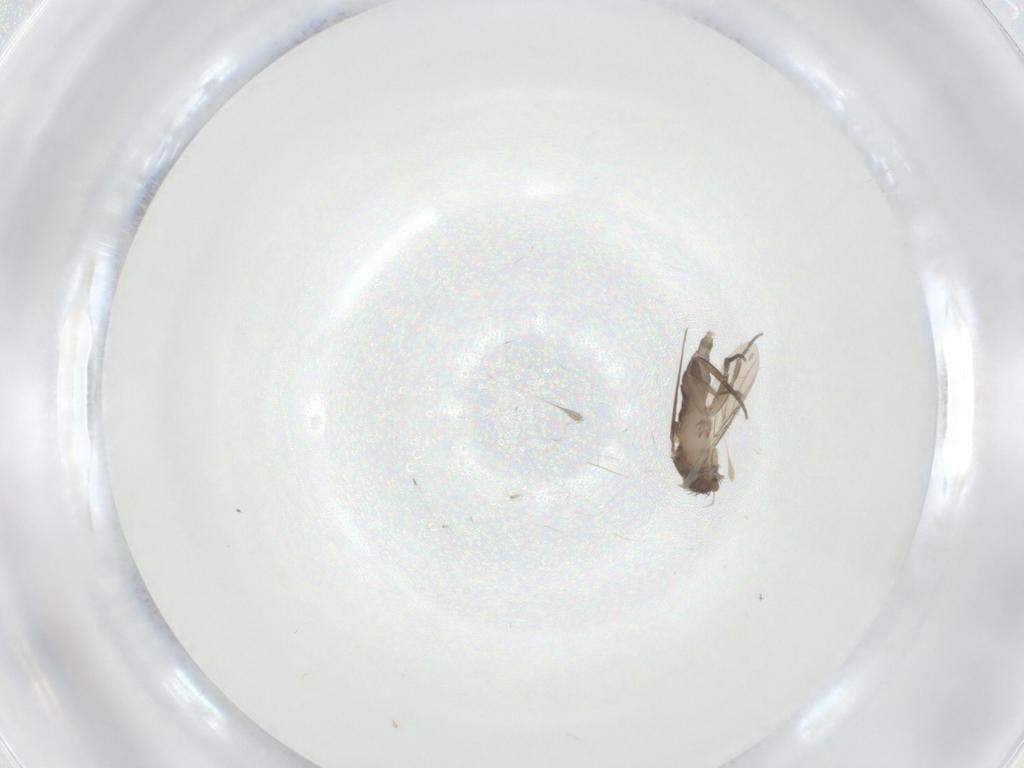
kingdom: Animalia
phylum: Arthropoda
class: Insecta
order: Diptera
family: Phoridae
